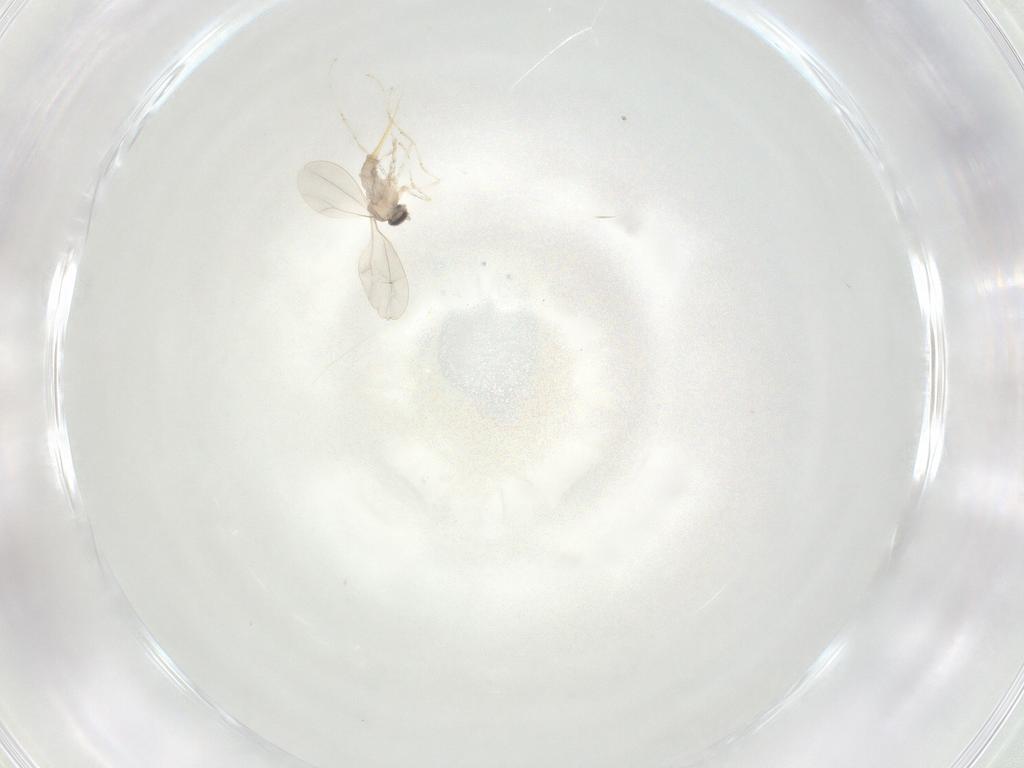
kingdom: Animalia
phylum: Arthropoda
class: Insecta
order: Diptera
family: Cecidomyiidae
